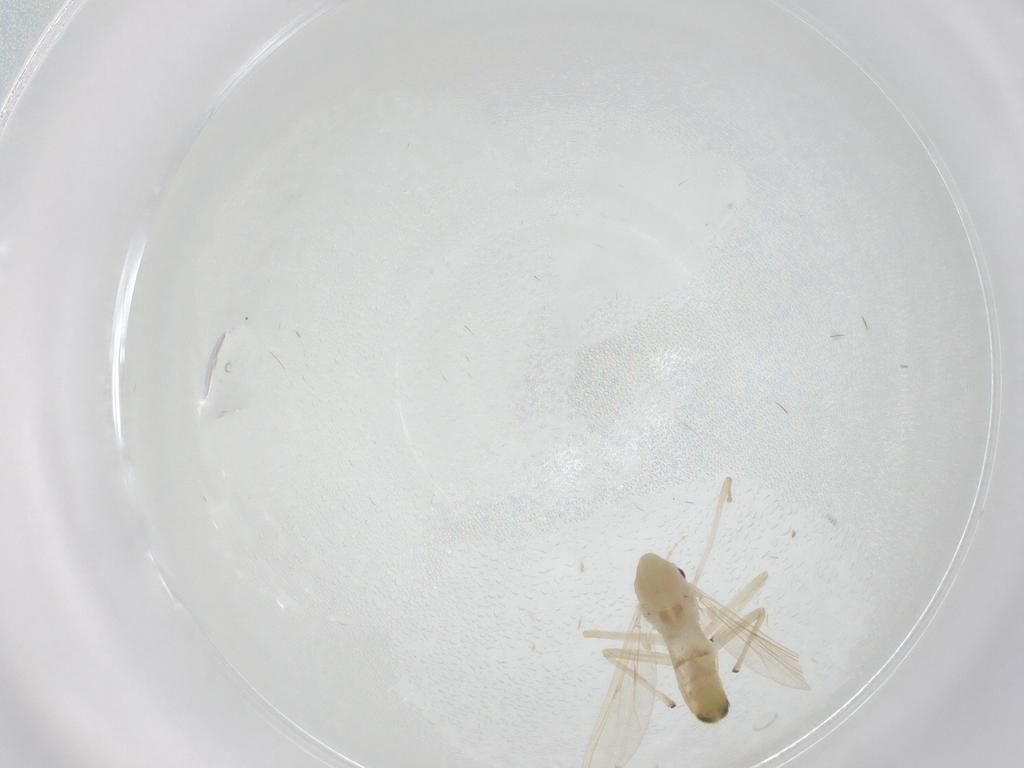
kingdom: Animalia
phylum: Arthropoda
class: Insecta
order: Diptera
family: Chironomidae
